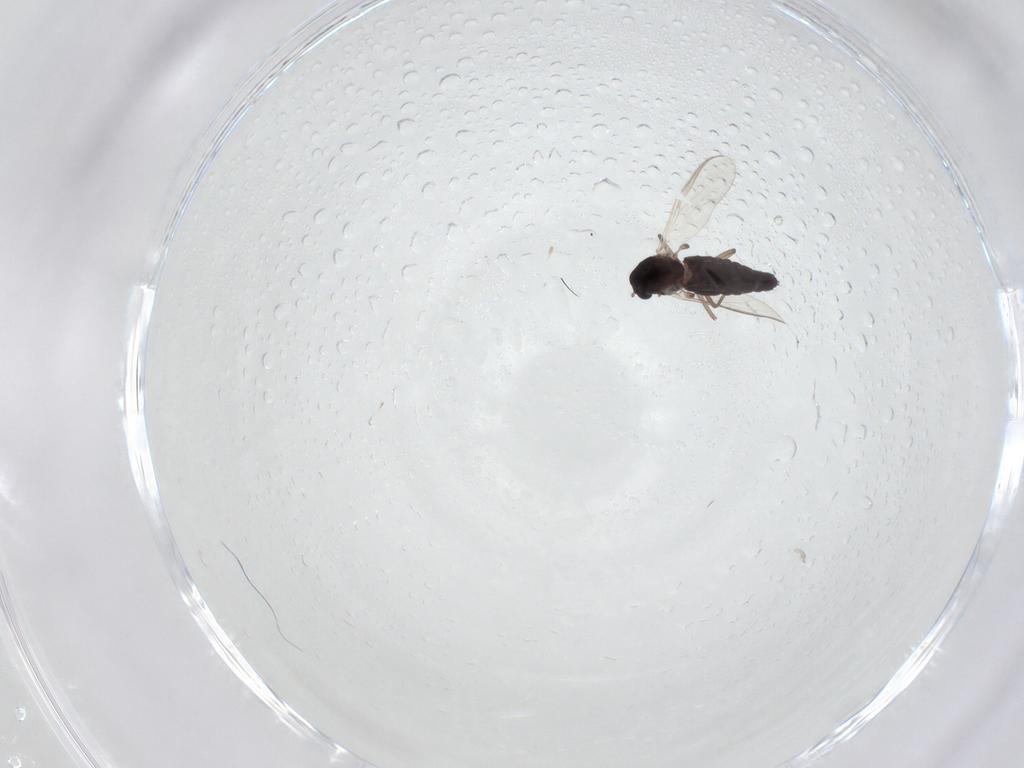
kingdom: Animalia
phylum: Arthropoda
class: Insecta
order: Diptera
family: Chironomidae
